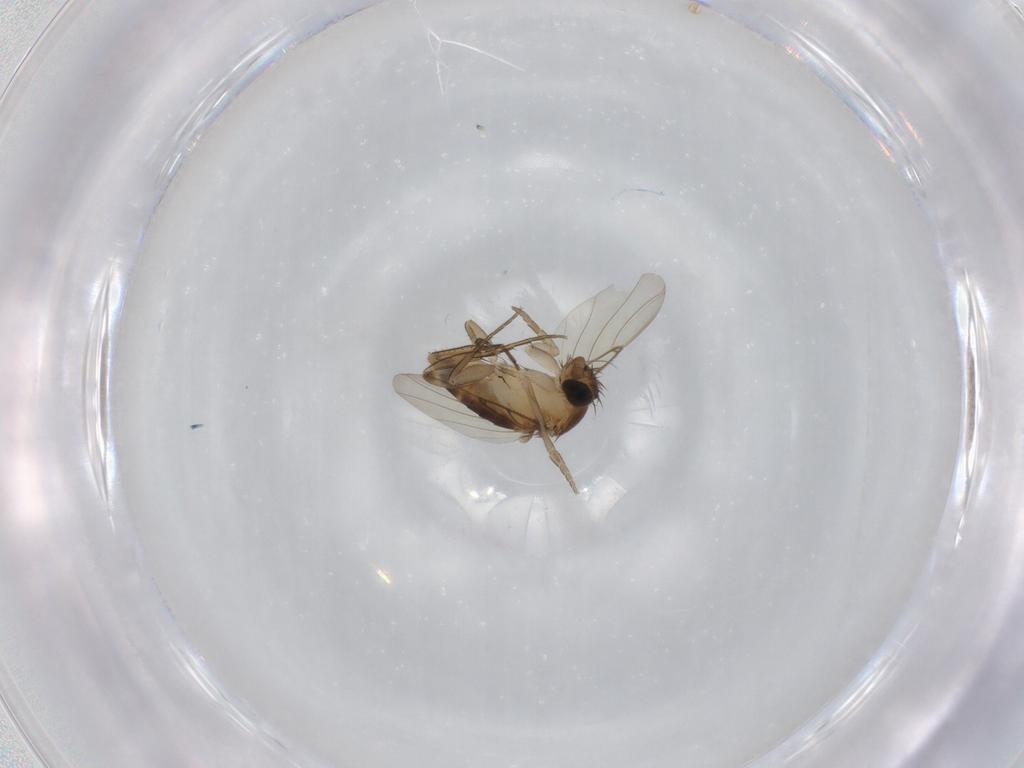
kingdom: Animalia
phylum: Arthropoda
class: Insecta
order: Diptera
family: Phoridae
